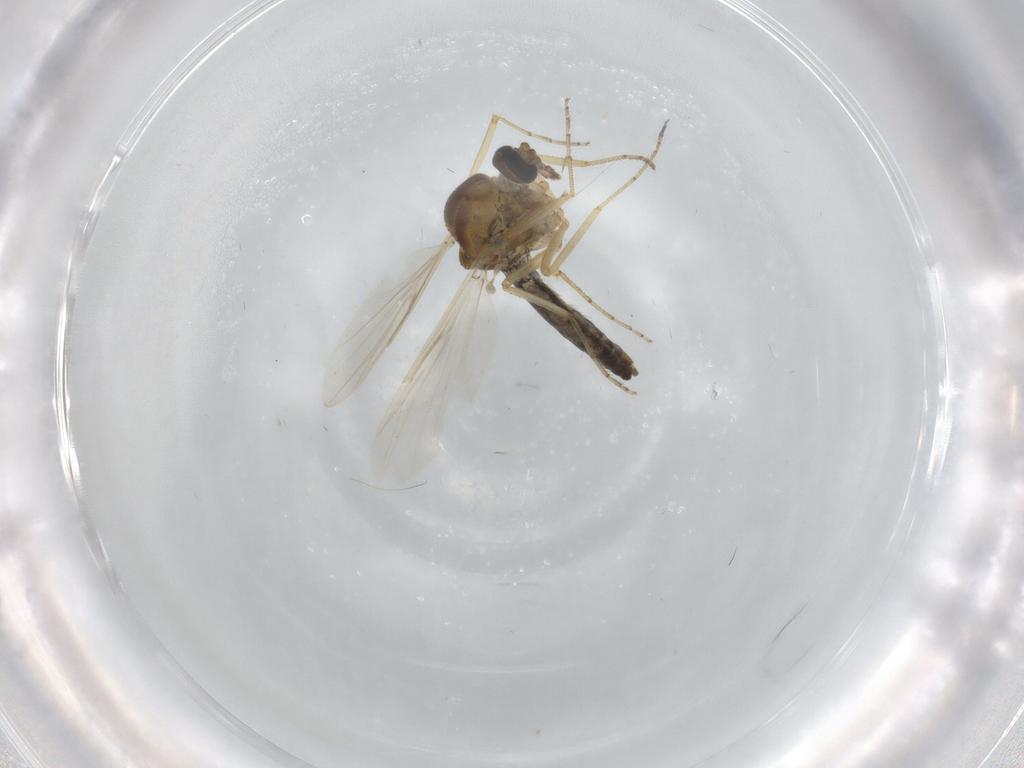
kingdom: Animalia
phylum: Arthropoda
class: Insecta
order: Diptera
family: Ceratopogonidae
